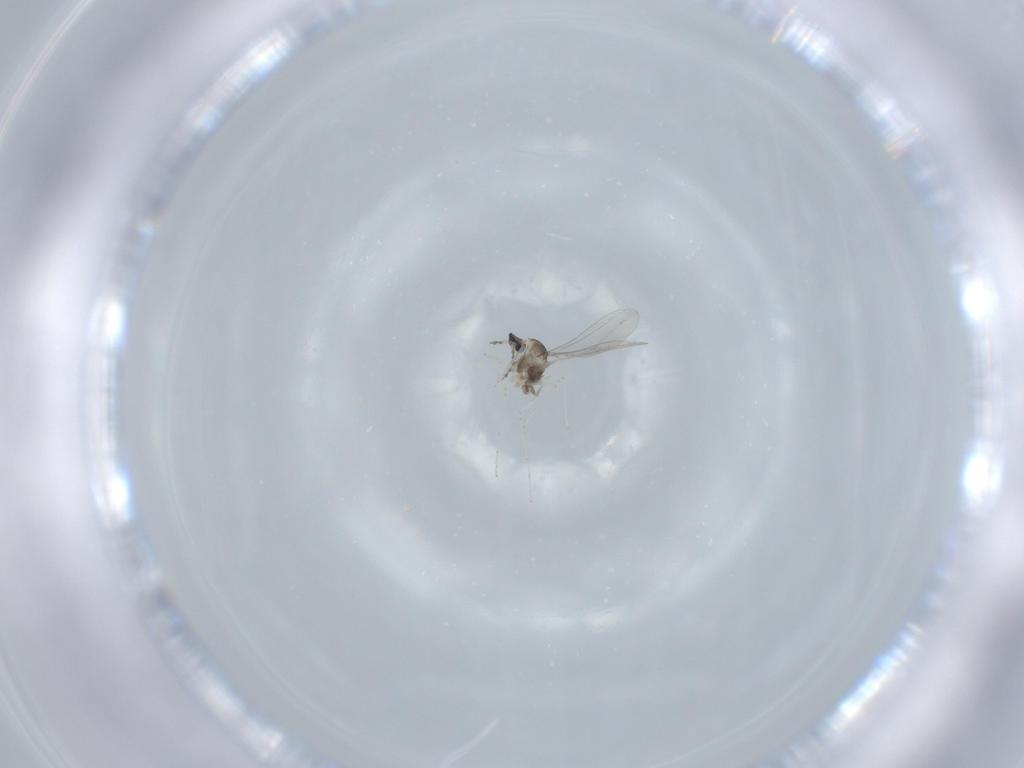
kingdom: Animalia
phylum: Arthropoda
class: Insecta
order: Diptera
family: Cecidomyiidae
